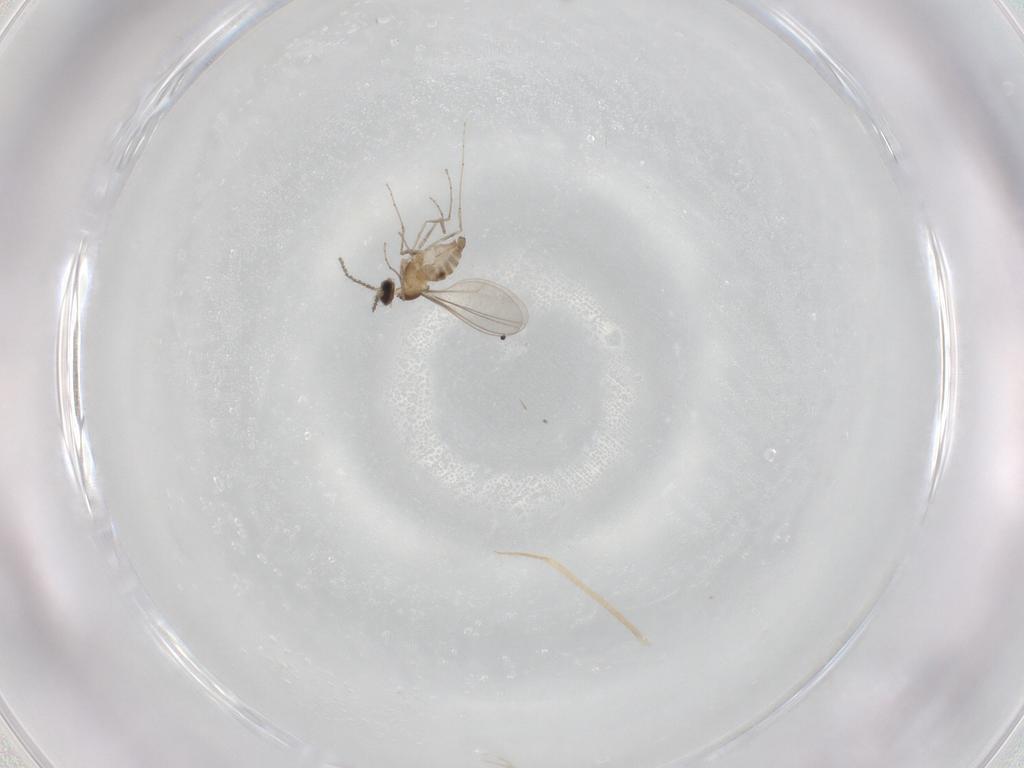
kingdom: Animalia
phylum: Arthropoda
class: Insecta
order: Diptera
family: Cecidomyiidae
